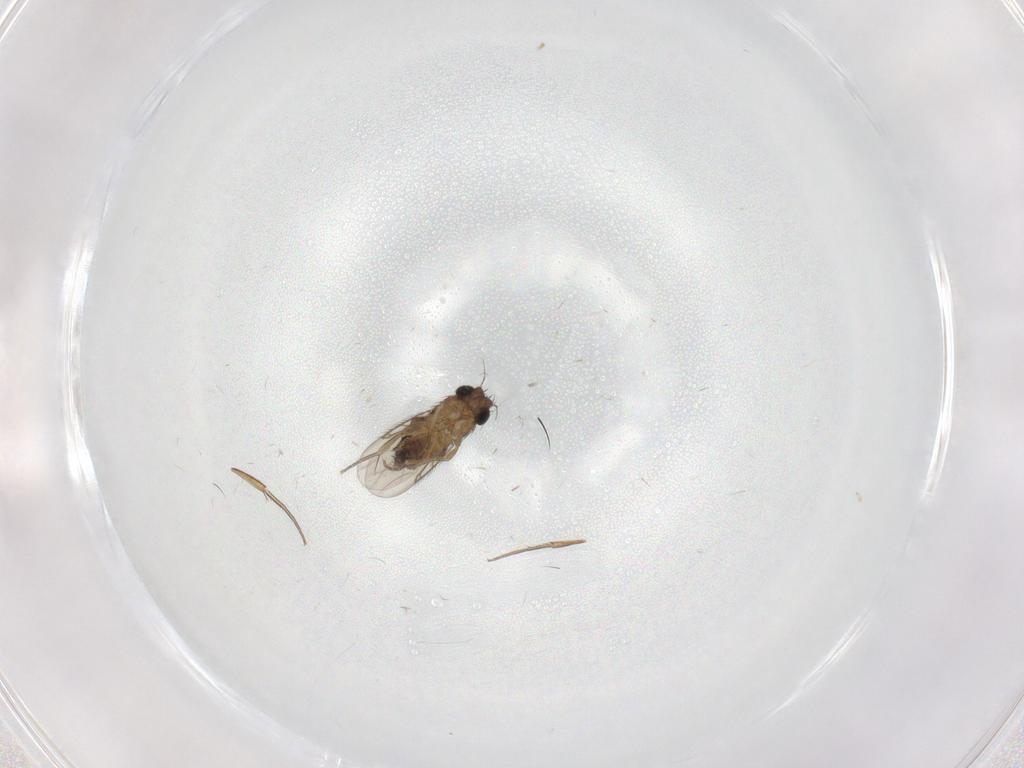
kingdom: Animalia
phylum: Arthropoda
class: Insecta
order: Diptera
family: Phoridae
